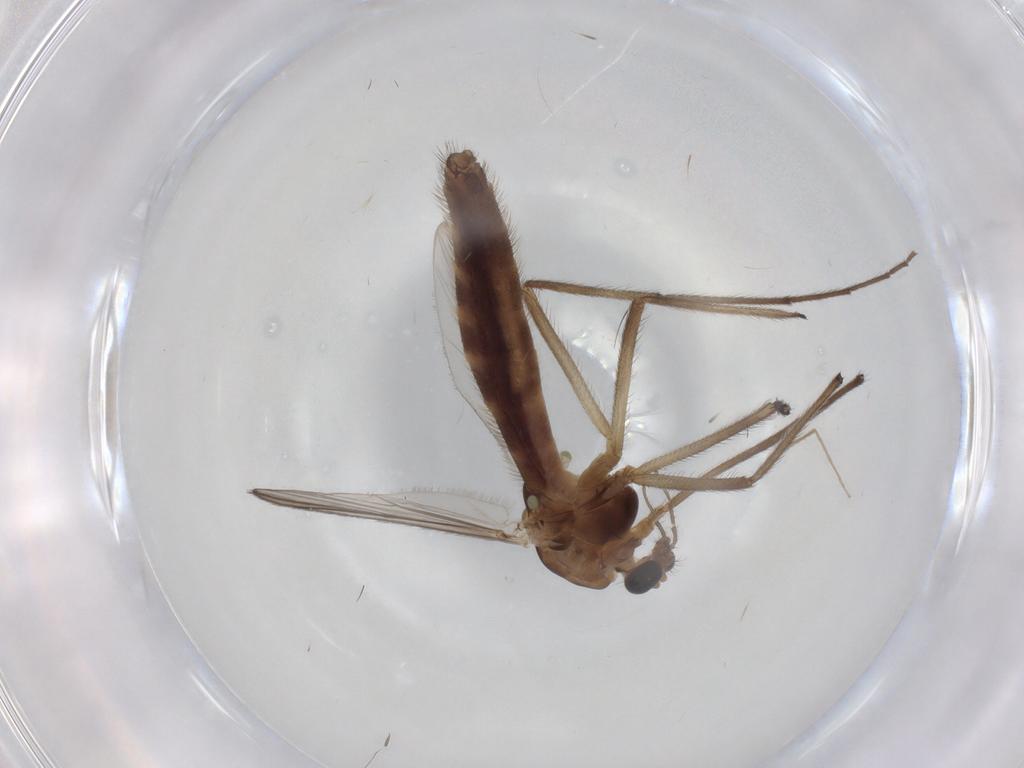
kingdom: Animalia
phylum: Arthropoda
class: Insecta
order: Diptera
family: Chironomidae
